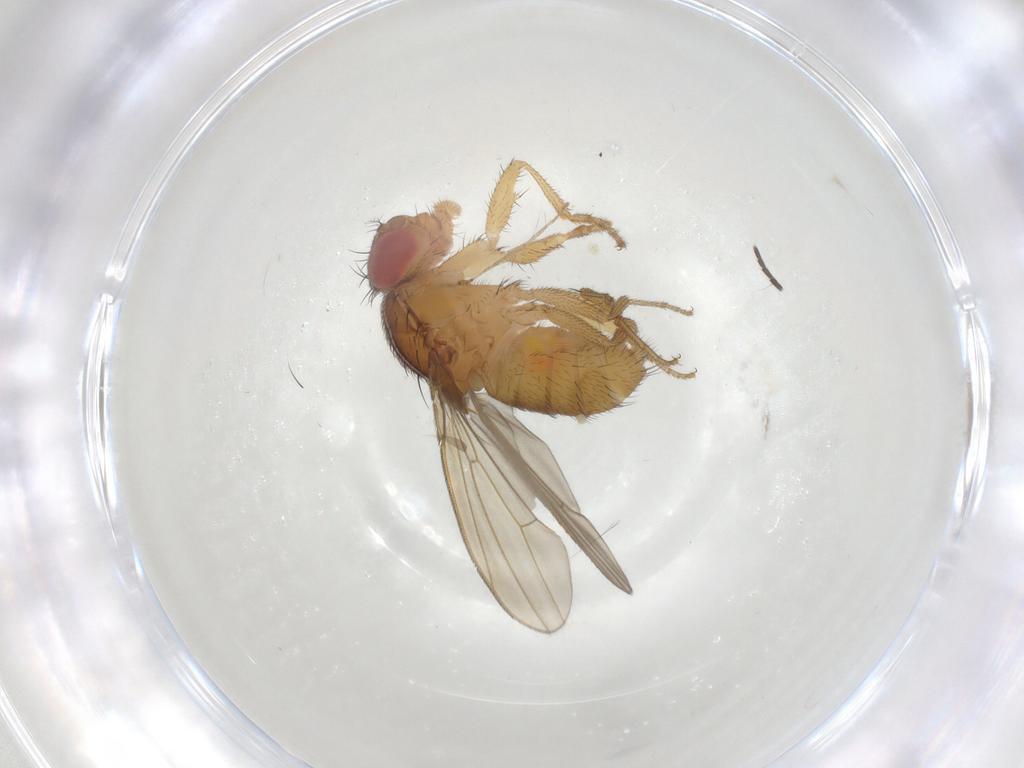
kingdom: Animalia
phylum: Arthropoda
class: Insecta
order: Diptera
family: Drosophilidae
